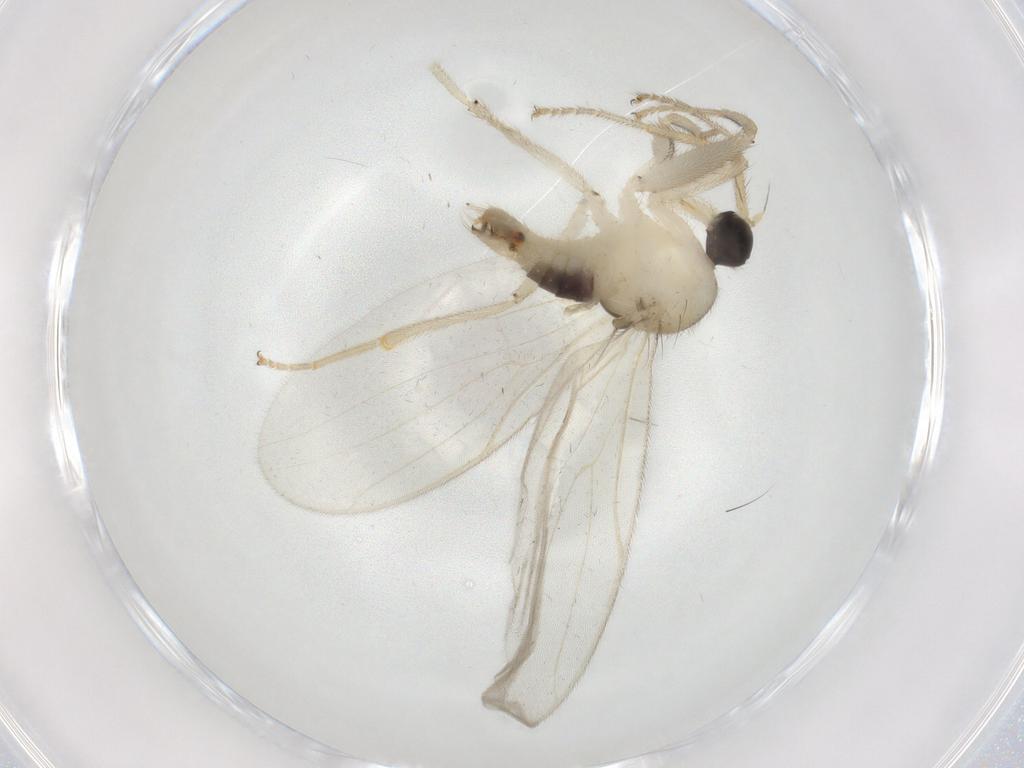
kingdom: Animalia
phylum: Arthropoda
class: Insecta
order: Diptera
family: Hybotidae
